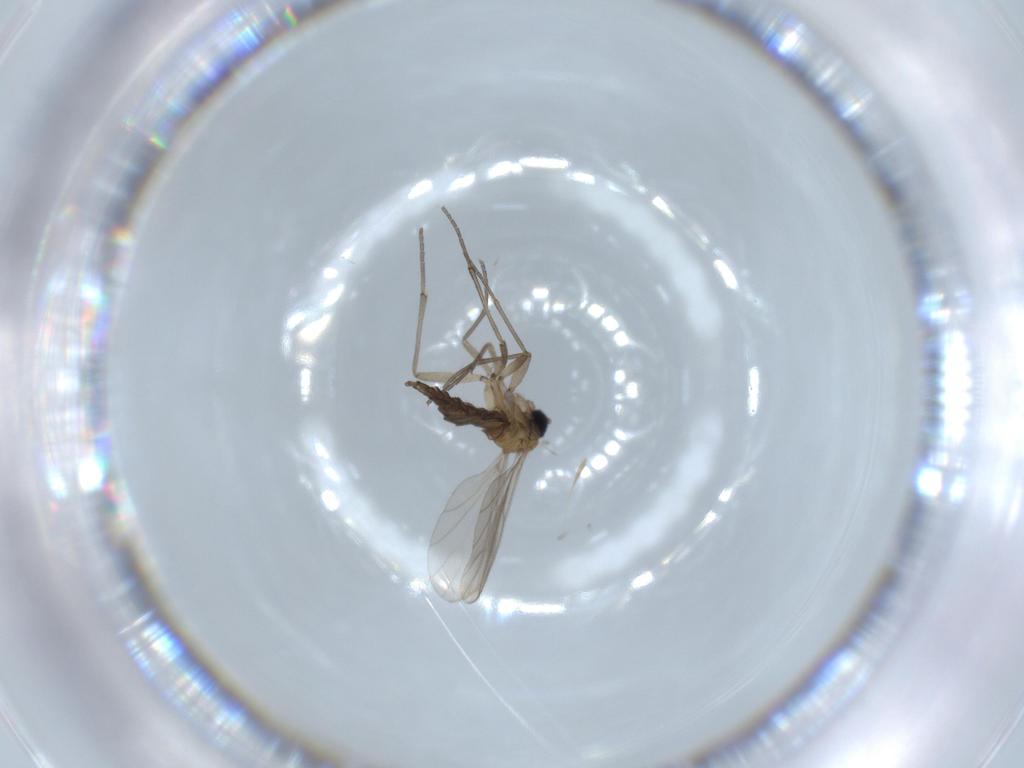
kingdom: Animalia
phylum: Arthropoda
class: Insecta
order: Diptera
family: Sciaridae
